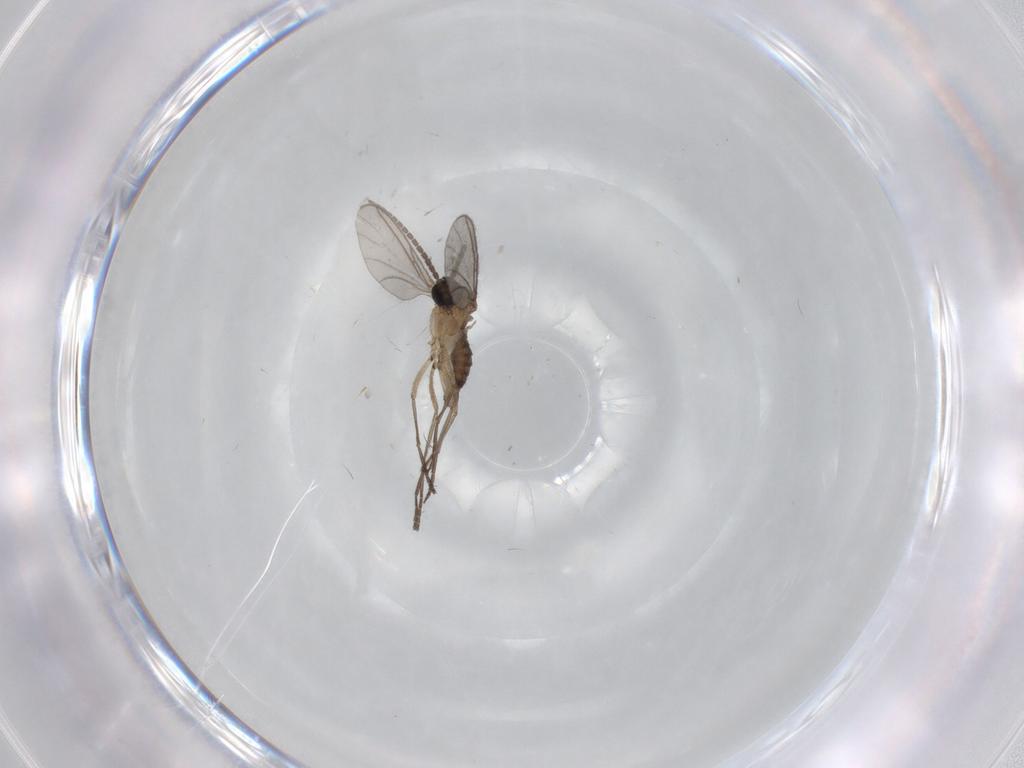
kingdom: Animalia
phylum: Arthropoda
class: Insecta
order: Diptera
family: Sciaridae
